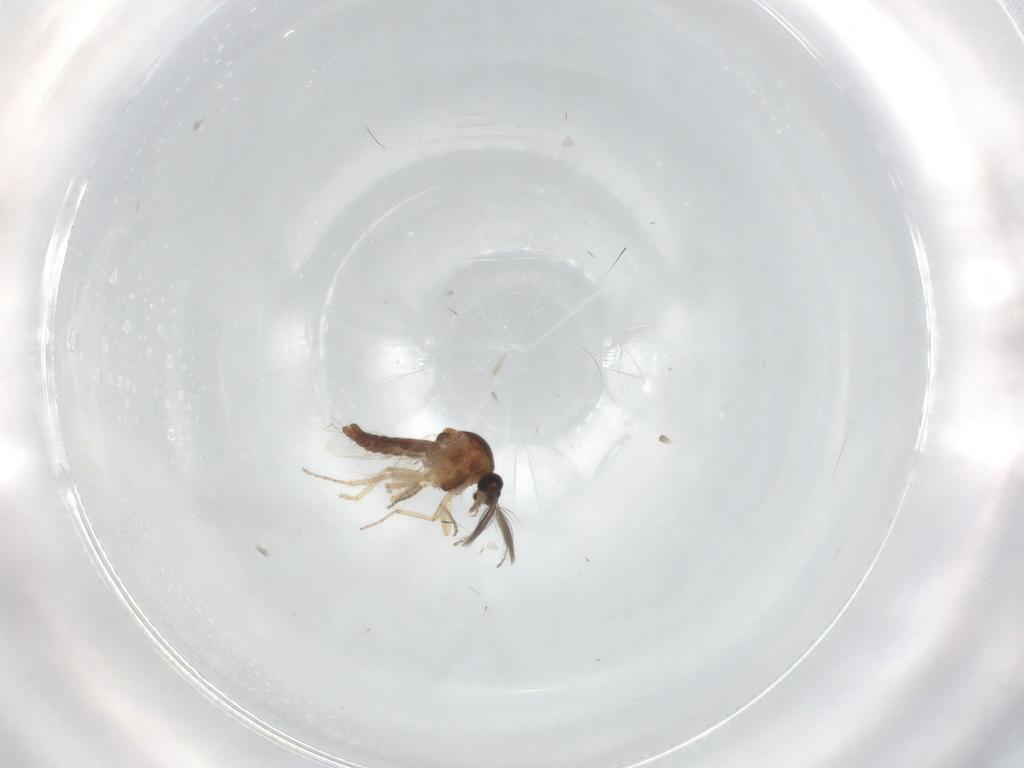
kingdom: Animalia
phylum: Arthropoda
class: Insecta
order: Diptera
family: Ceratopogonidae
